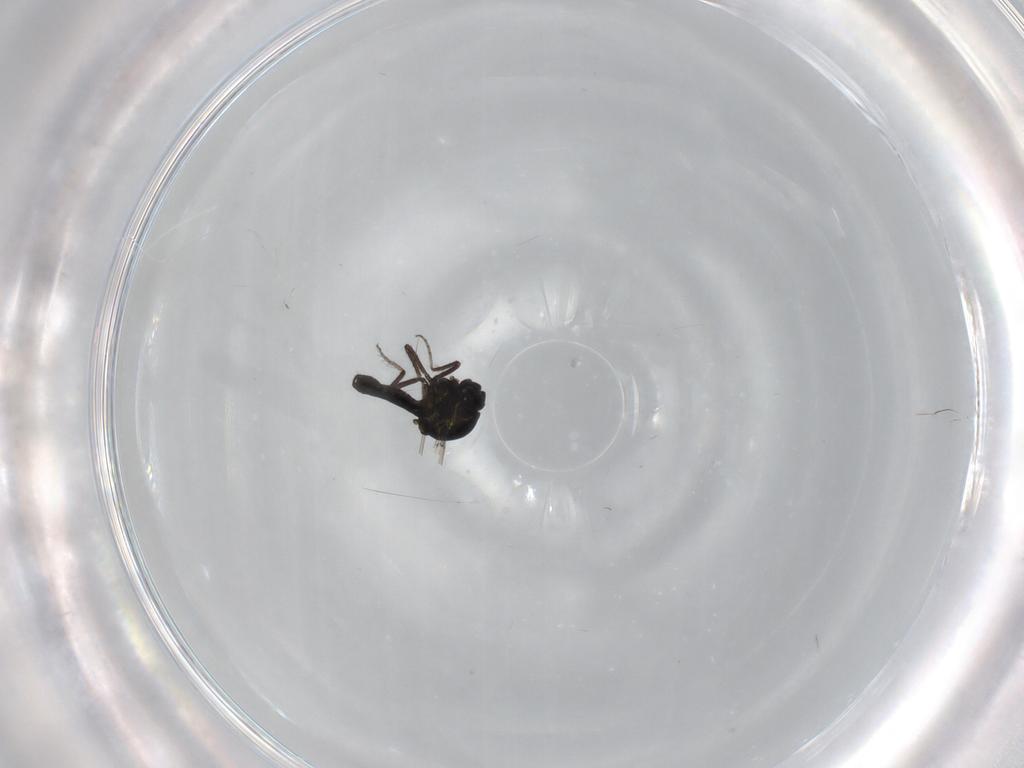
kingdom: Animalia
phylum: Arthropoda
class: Insecta
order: Diptera
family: Ceratopogonidae
